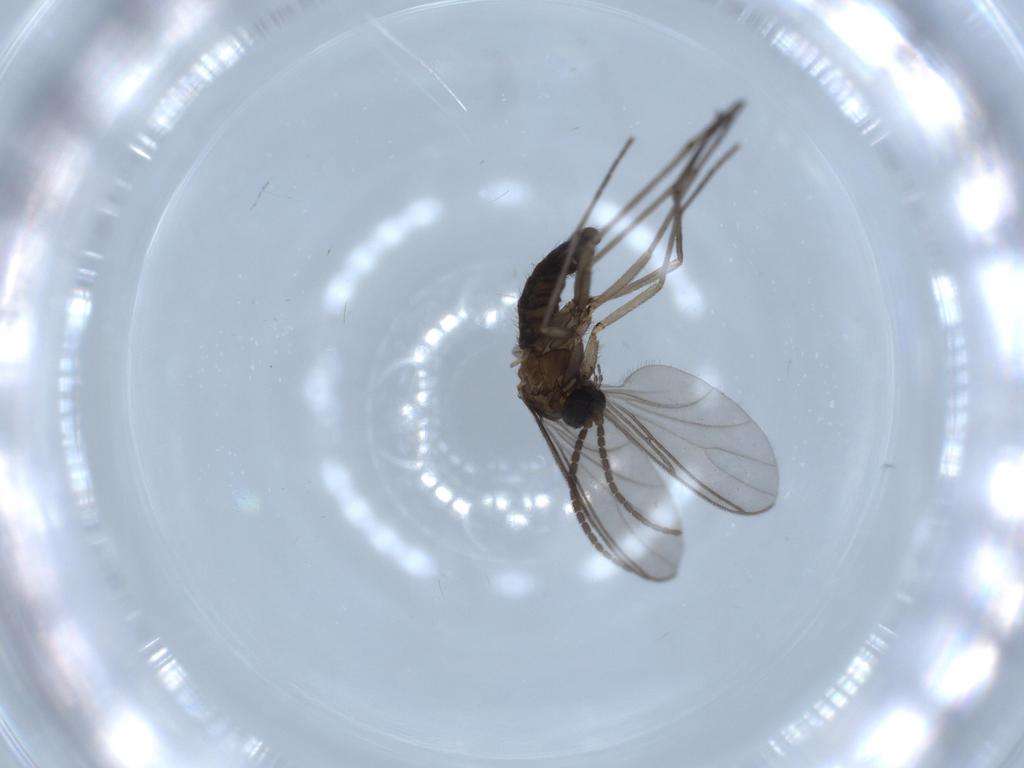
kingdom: Animalia
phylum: Arthropoda
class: Insecta
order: Diptera
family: Sciaridae
